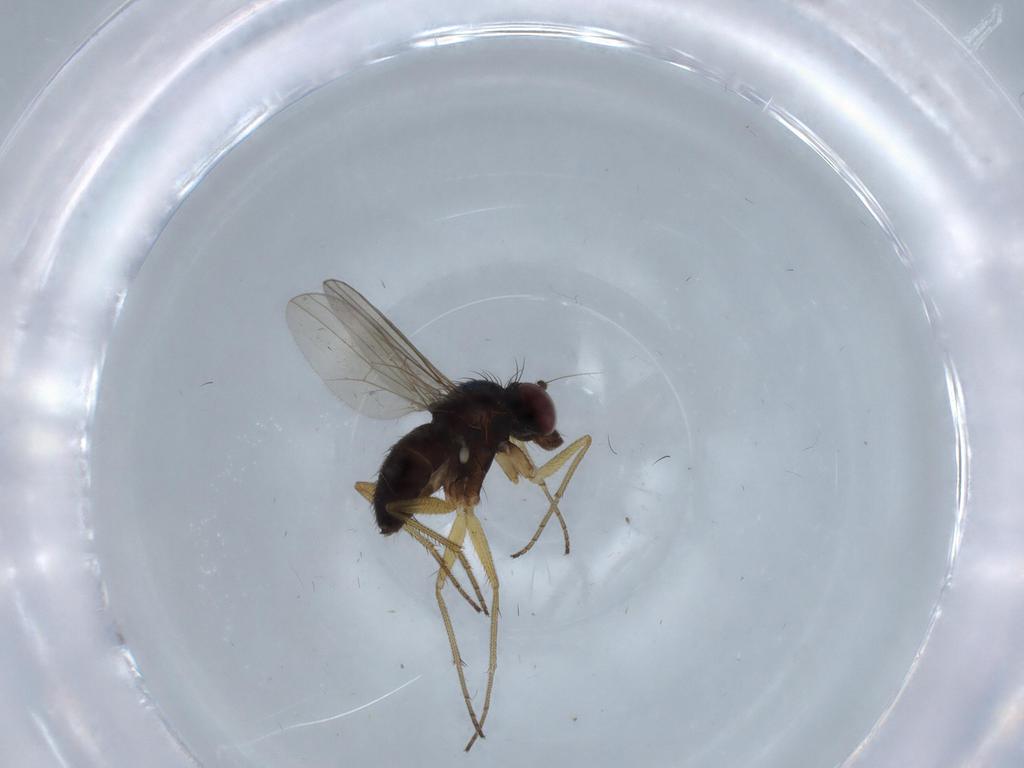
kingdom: Animalia
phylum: Arthropoda
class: Insecta
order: Diptera
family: Dolichopodidae
